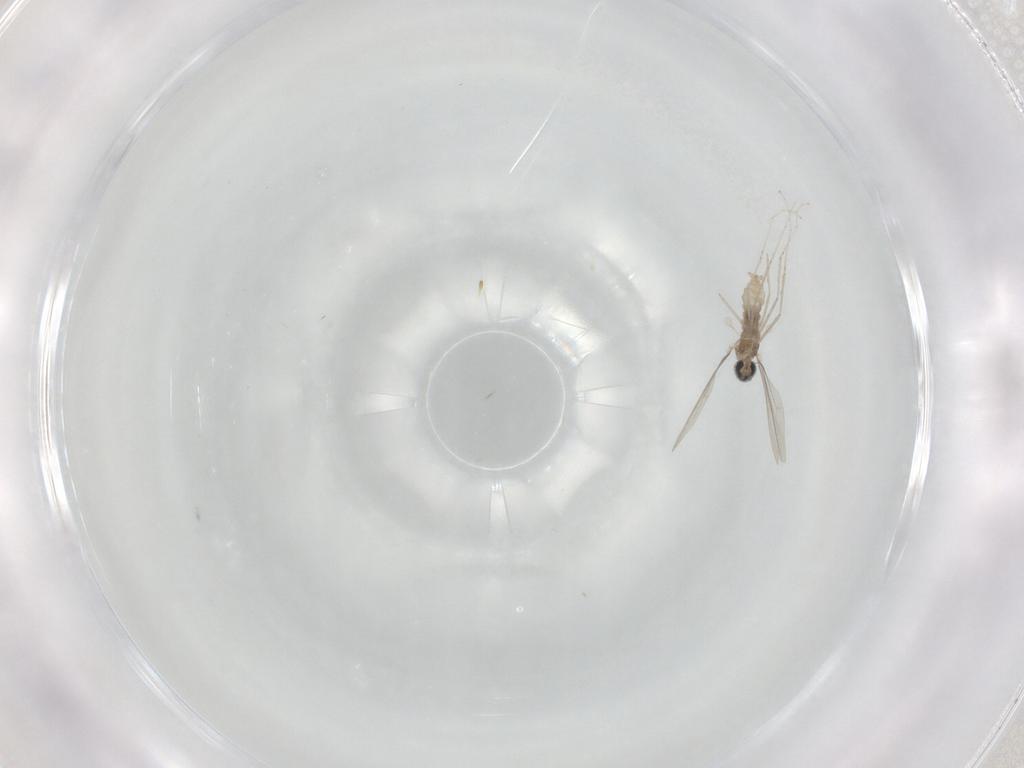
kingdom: Animalia
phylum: Arthropoda
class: Insecta
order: Diptera
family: Cecidomyiidae
